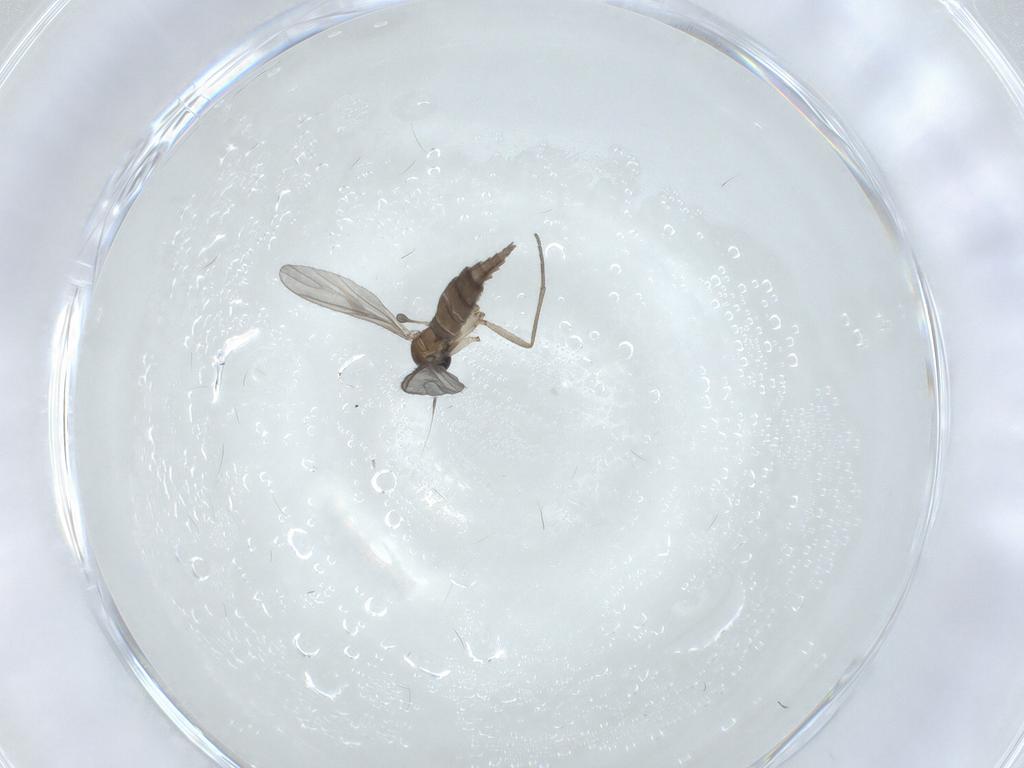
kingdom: Animalia
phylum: Arthropoda
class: Insecta
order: Diptera
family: Sciaridae
